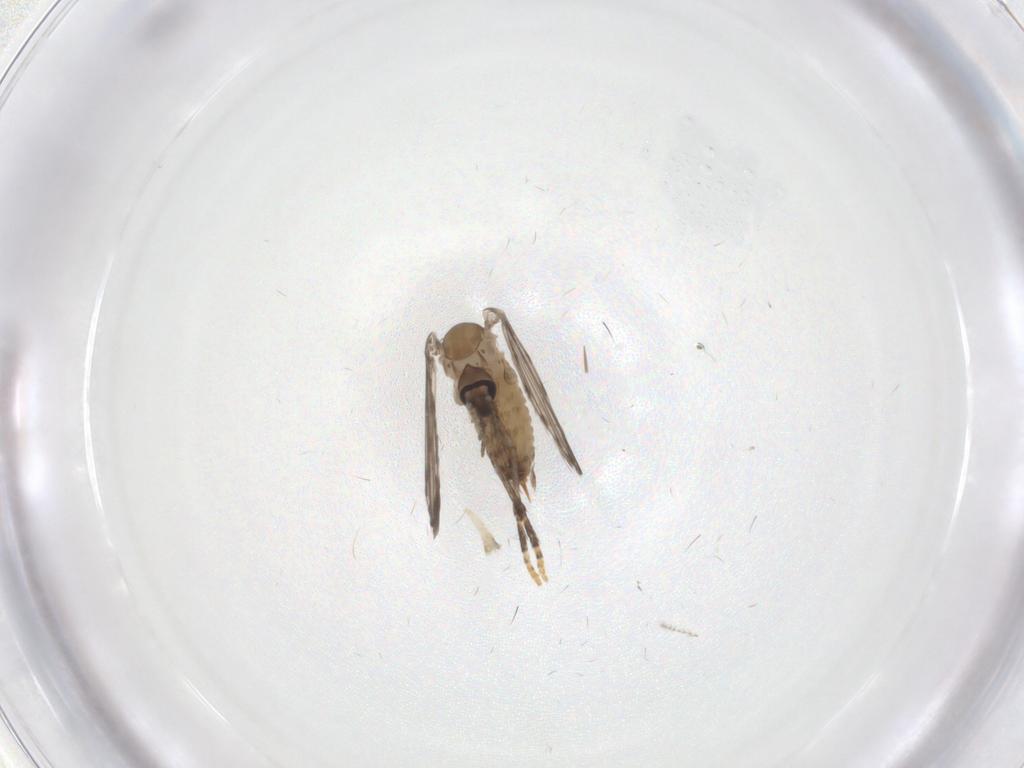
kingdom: Animalia
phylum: Arthropoda
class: Insecta
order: Diptera
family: Psychodidae
